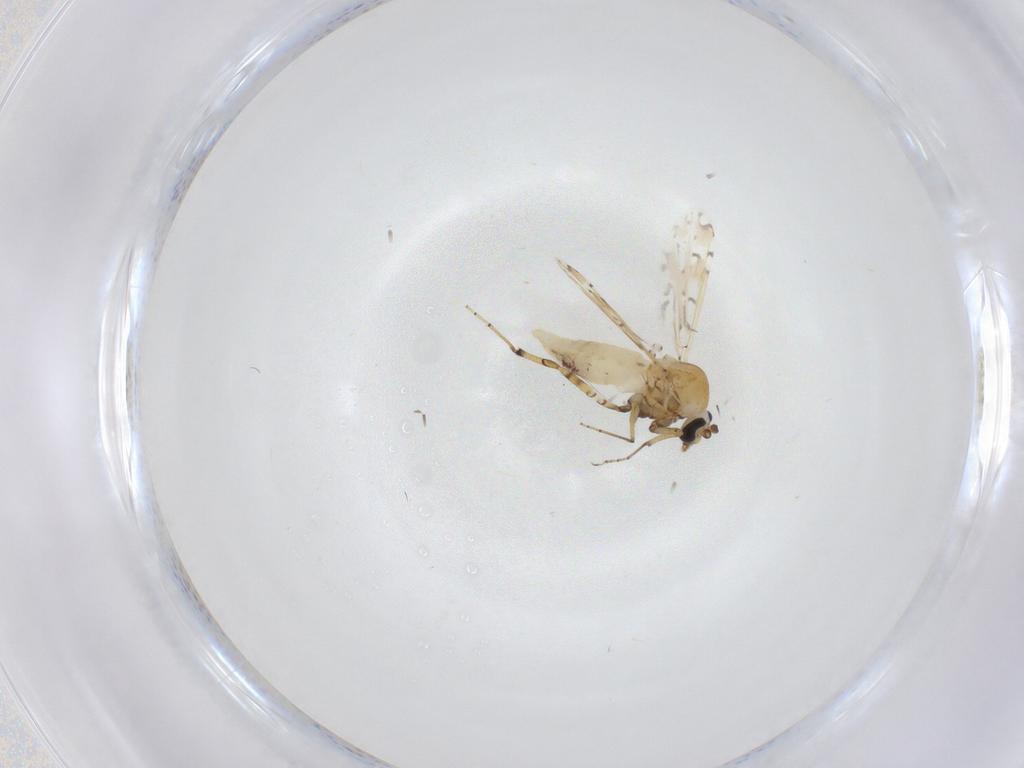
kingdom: Animalia
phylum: Arthropoda
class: Insecta
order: Diptera
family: Ceratopogonidae
